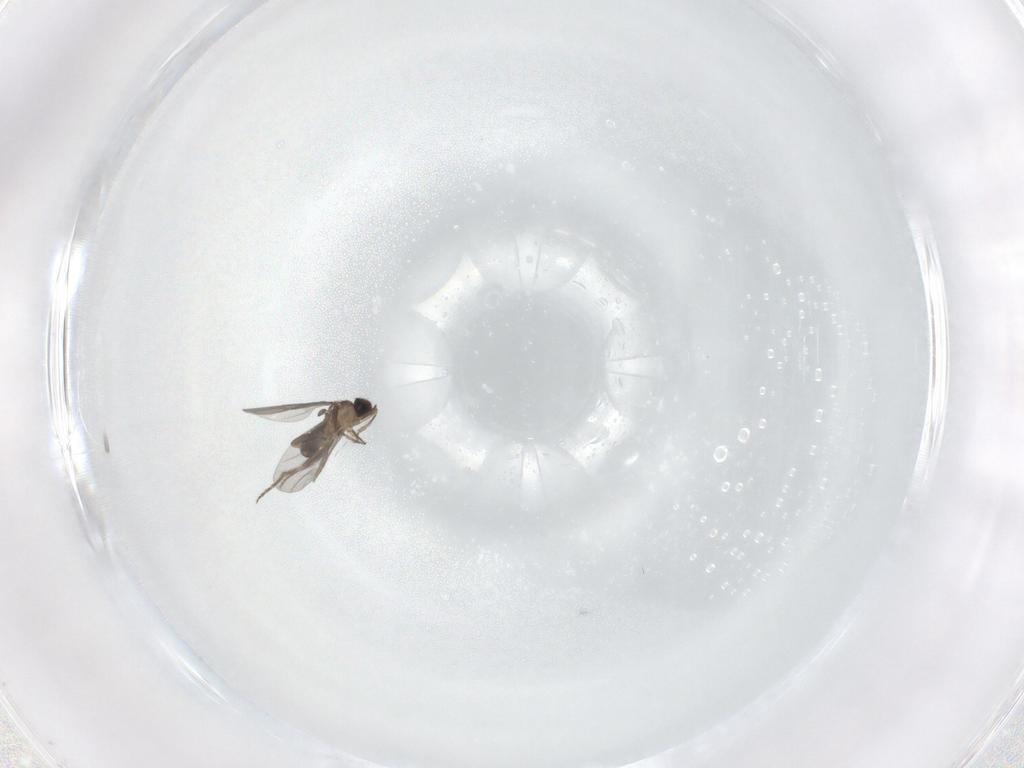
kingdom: Animalia
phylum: Arthropoda
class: Insecta
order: Diptera
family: Phoridae
